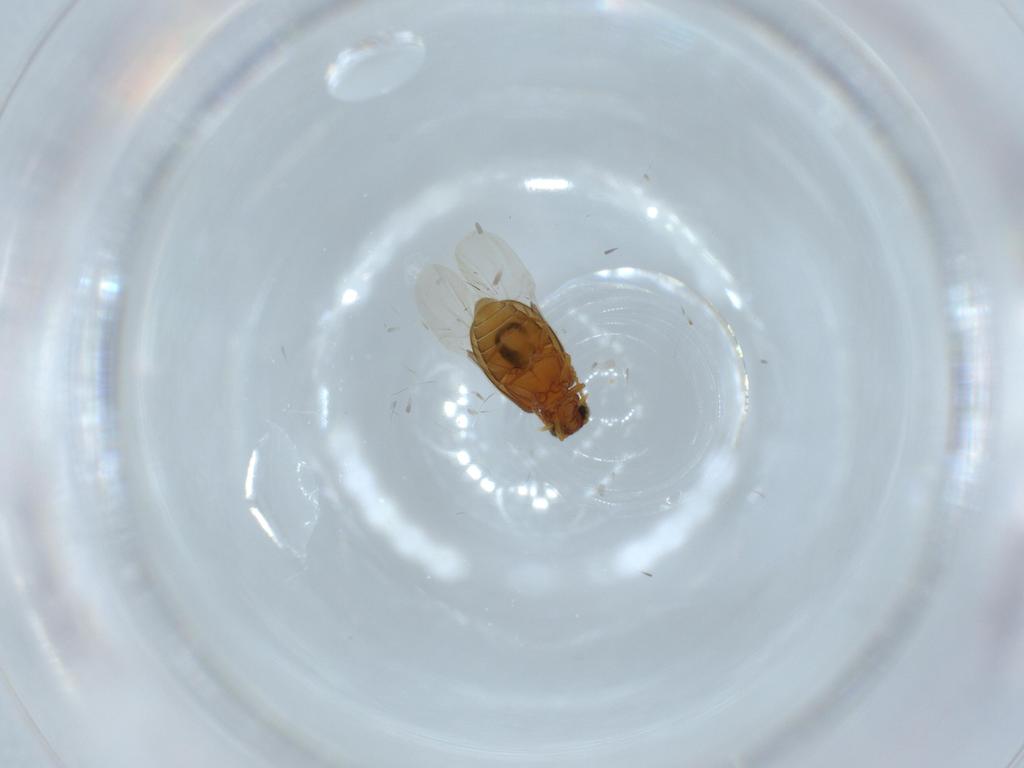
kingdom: Animalia
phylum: Arthropoda
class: Insecta
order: Coleoptera
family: Aderidae
